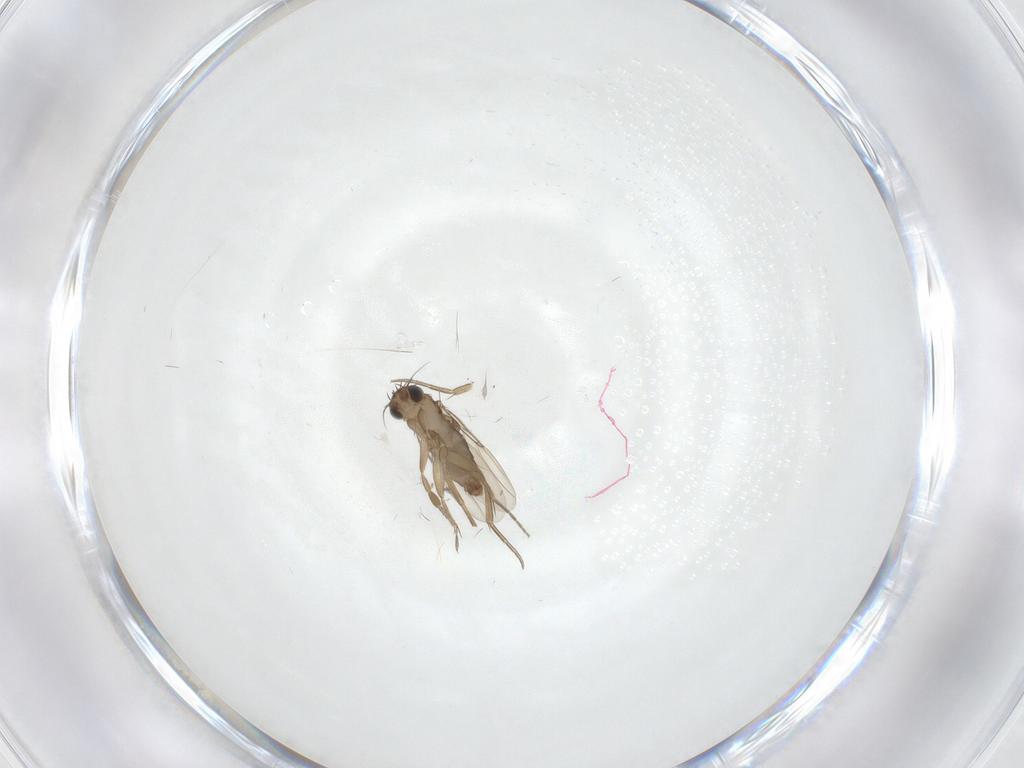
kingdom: Animalia
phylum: Arthropoda
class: Insecta
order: Diptera
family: Phoridae
